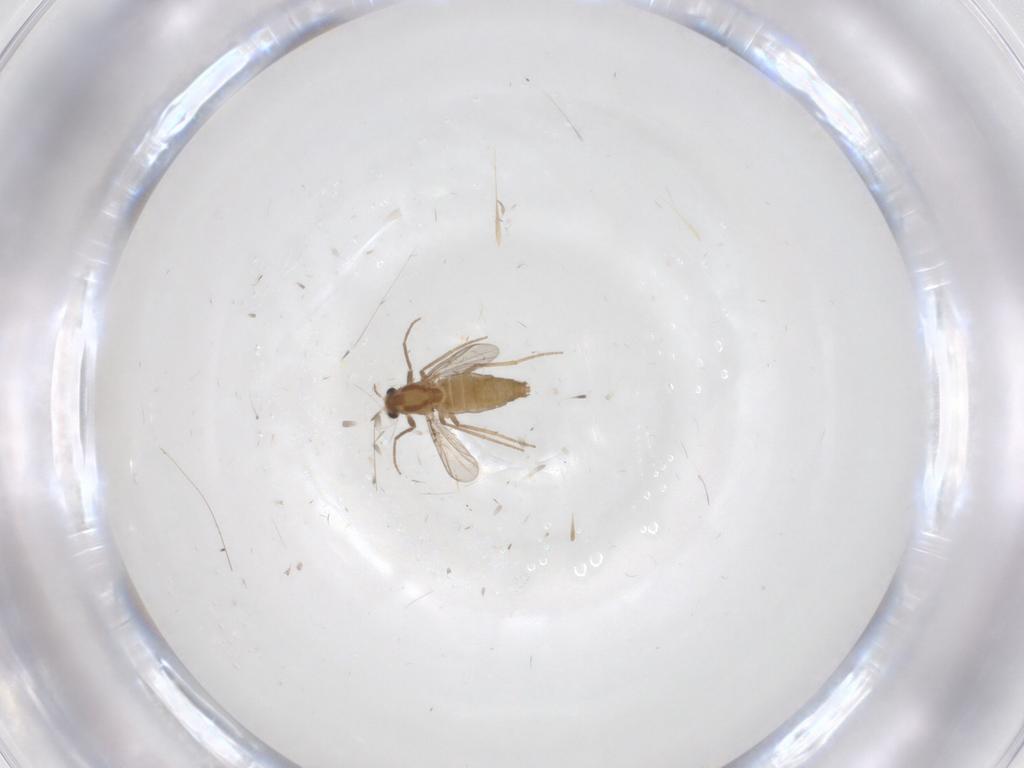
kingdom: Animalia
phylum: Arthropoda
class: Insecta
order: Diptera
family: Chironomidae
